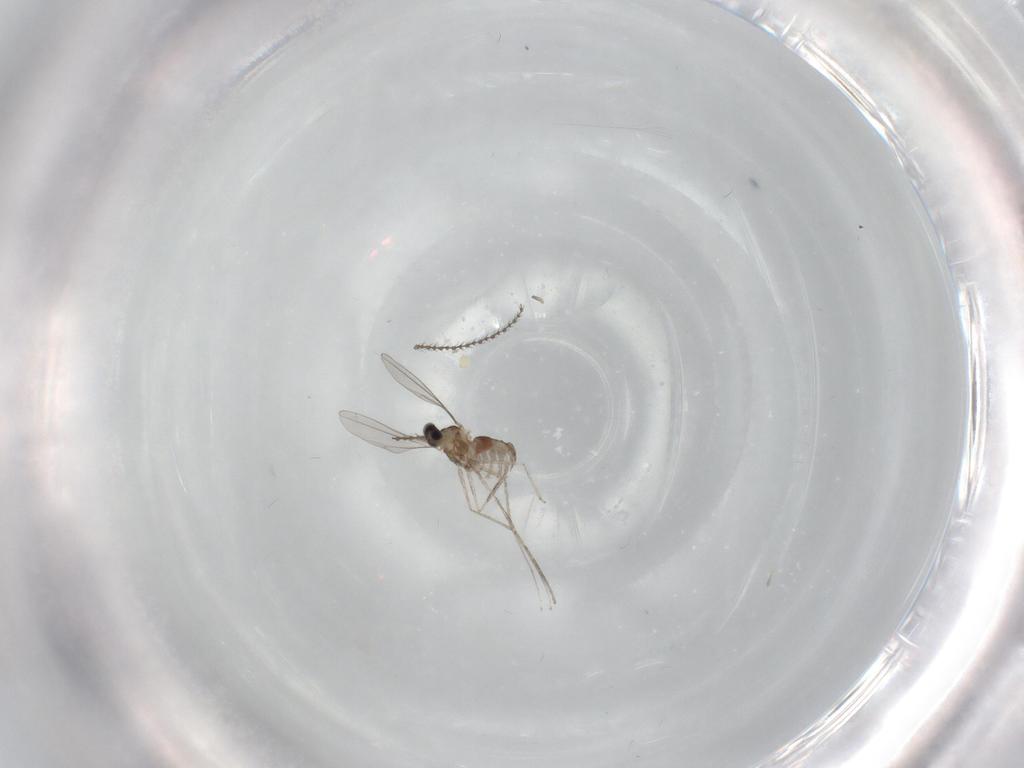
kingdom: Animalia
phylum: Arthropoda
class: Insecta
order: Diptera
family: Cecidomyiidae
